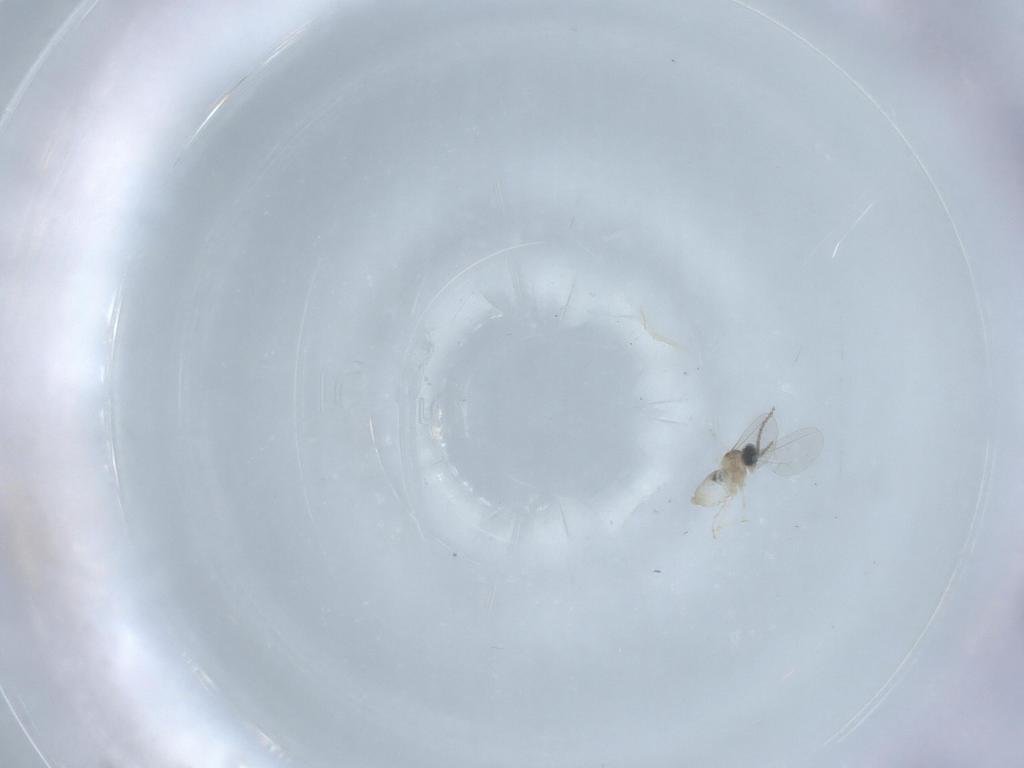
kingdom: Animalia
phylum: Arthropoda
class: Insecta
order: Diptera
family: Chironomidae
